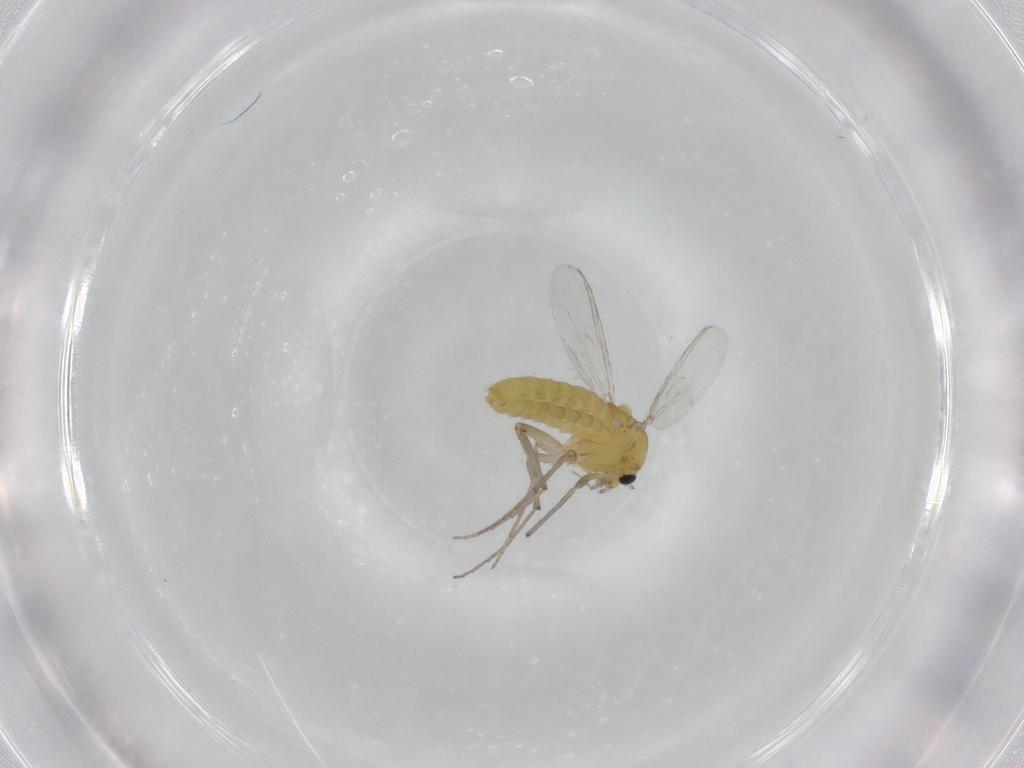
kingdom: Animalia
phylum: Arthropoda
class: Insecta
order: Diptera
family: Chironomidae
